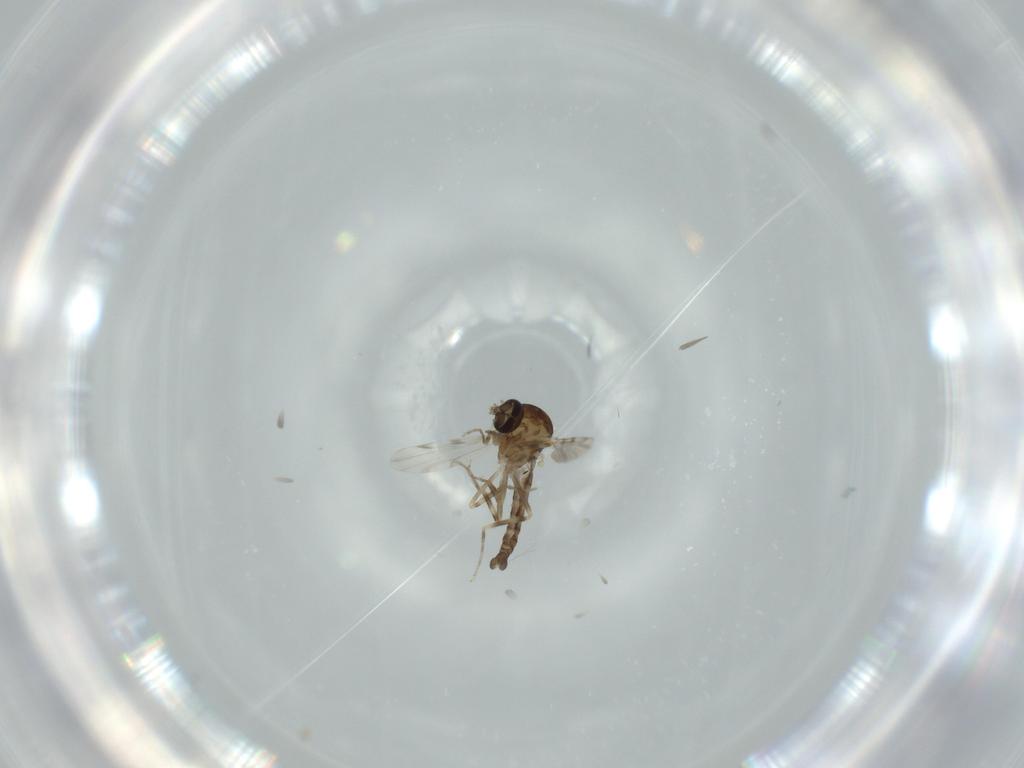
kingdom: Animalia
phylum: Arthropoda
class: Insecta
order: Diptera
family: Ceratopogonidae
